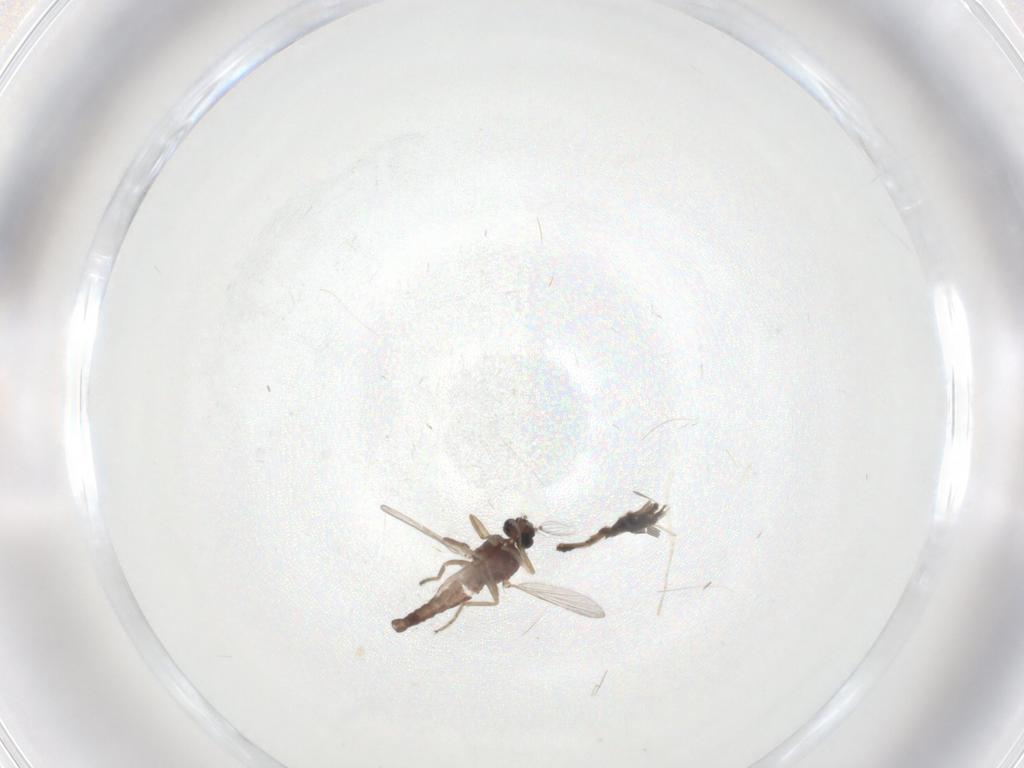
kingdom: Animalia
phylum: Arthropoda
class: Insecta
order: Diptera
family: Ceratopogonidae
